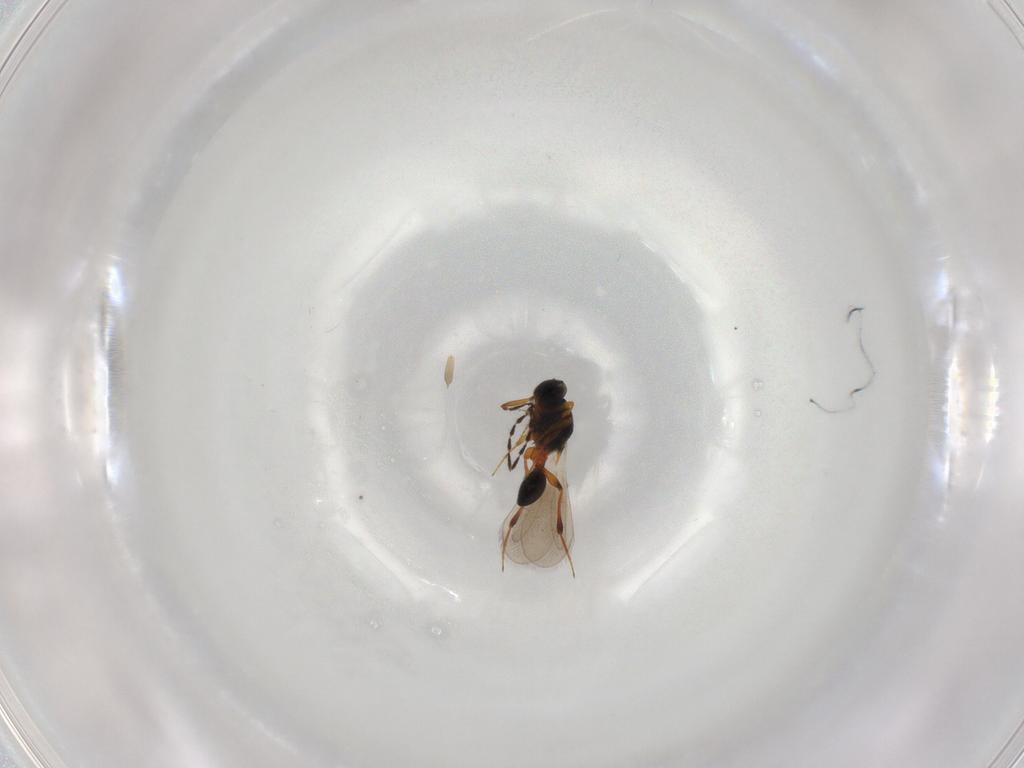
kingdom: Animalia
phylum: Arthropoda
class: Insecta
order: Hymenoptera
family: Platygastridae
